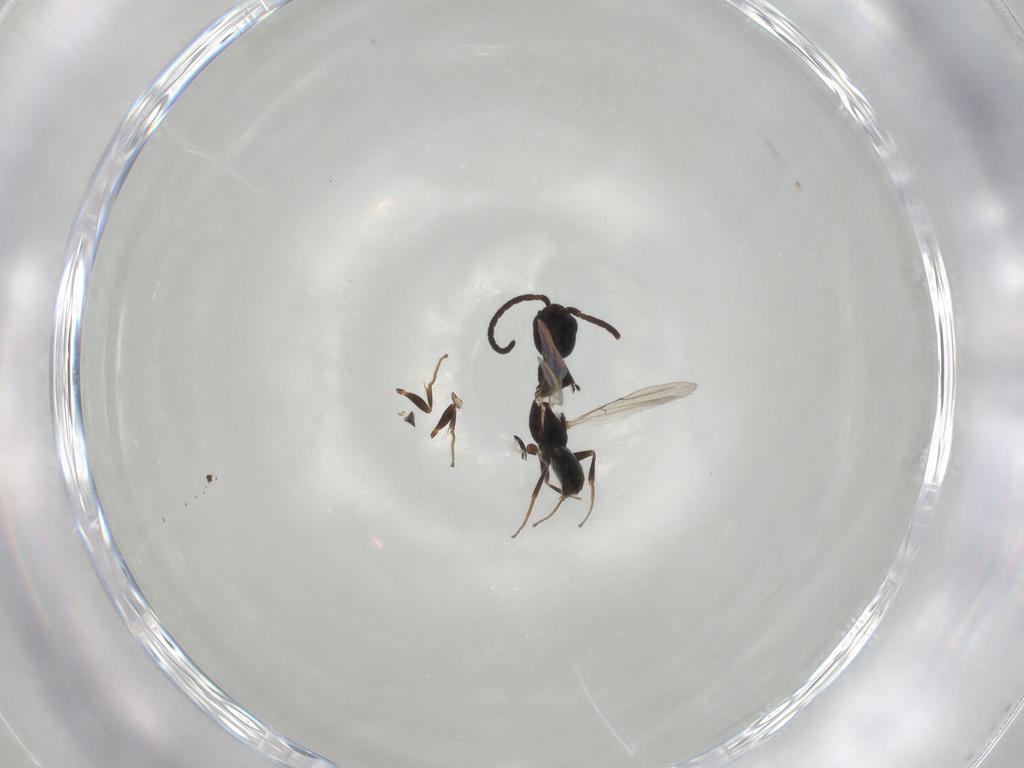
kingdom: Animalia
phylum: Arthropoda
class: Insecta
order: Hymenoptera
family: Bethylidae
